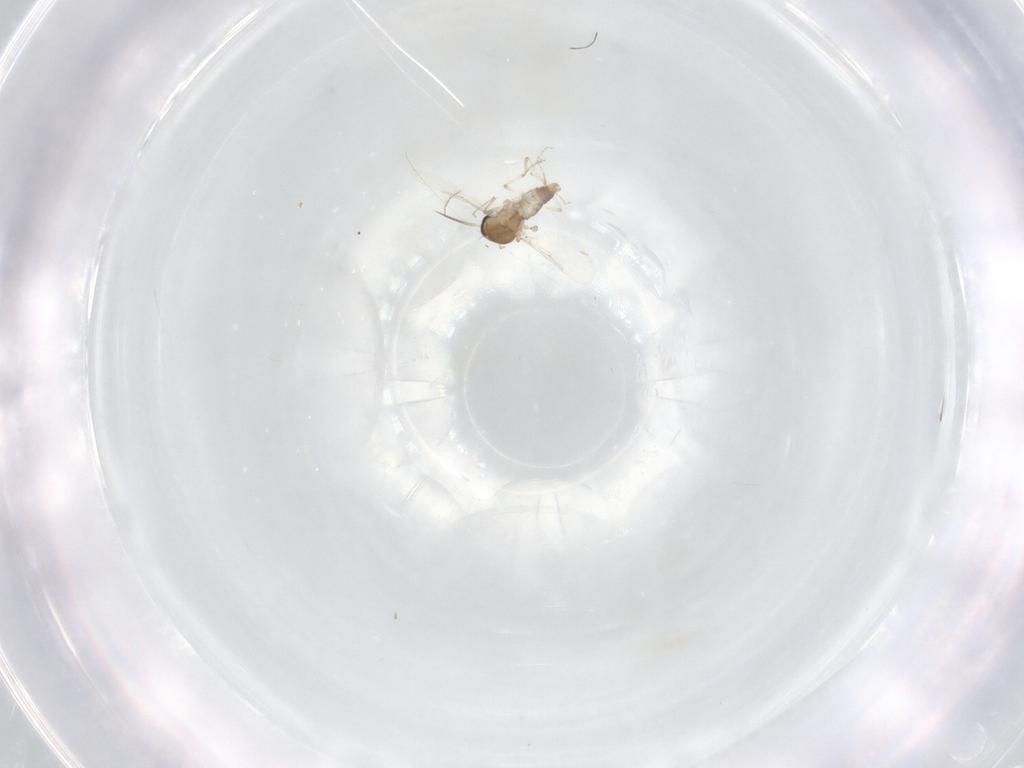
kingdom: Animalia
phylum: Arthropoda
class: Insecta
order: Diptera
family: Ceratopogonidae
